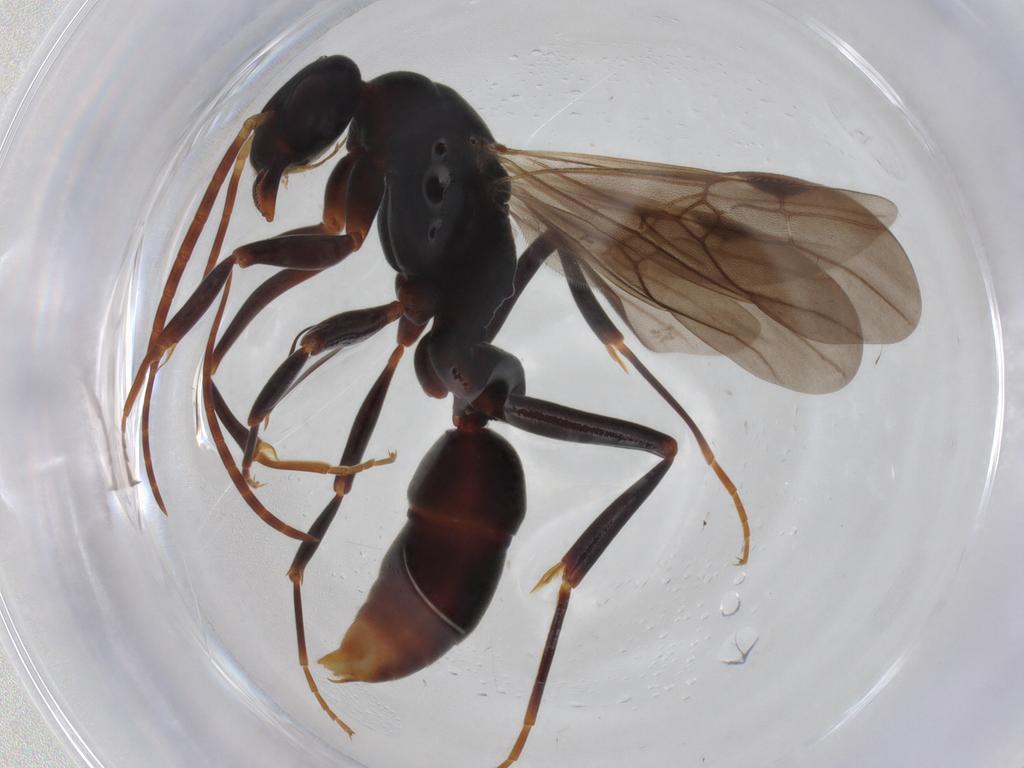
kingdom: Animalia
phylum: Arthropoda
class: Insecta
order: Hymenoptera
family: Formicidae
